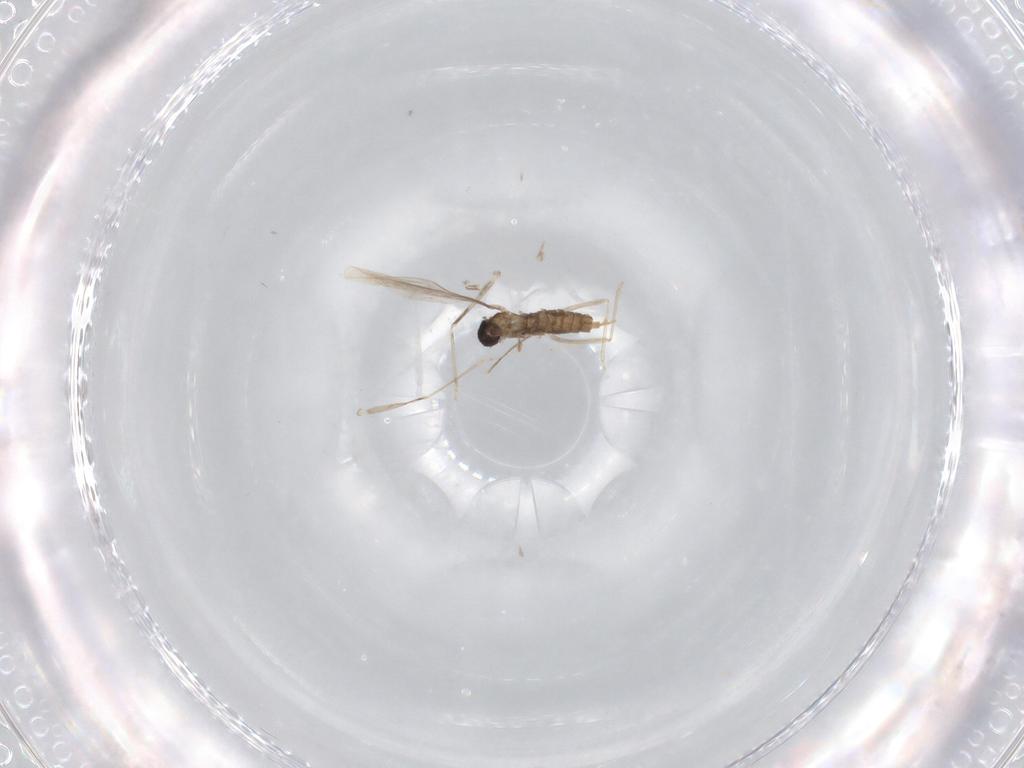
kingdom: Animalia
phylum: Arthropoda
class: Insecta
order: Diptera
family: Cecidomyiidae
